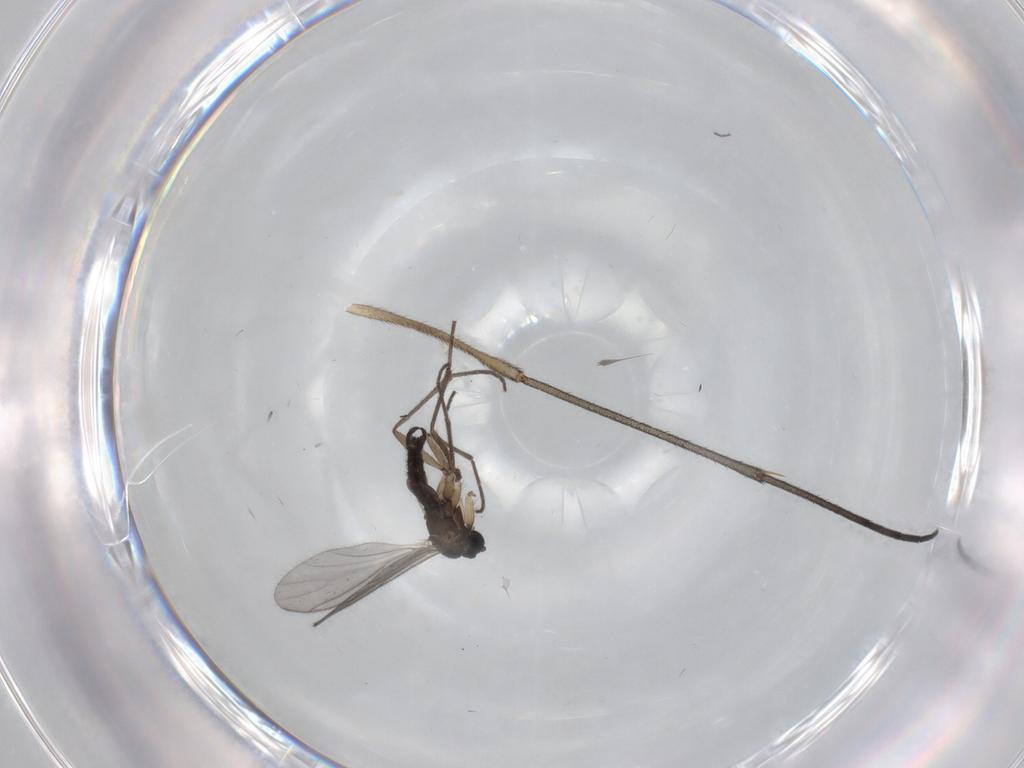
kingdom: Animalia
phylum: Arthropoda
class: Insecta
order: Diptera
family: Sciaridae
